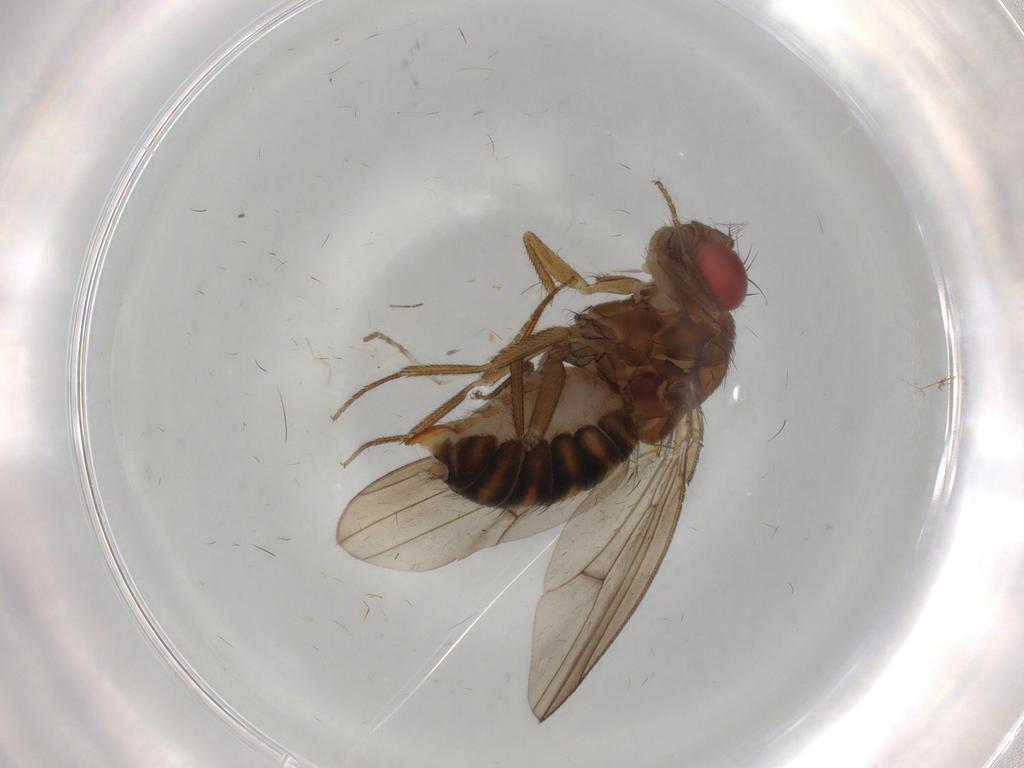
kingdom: Animalia
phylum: Arthropoda
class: Insecta
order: Diptera
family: Drosophilidae
